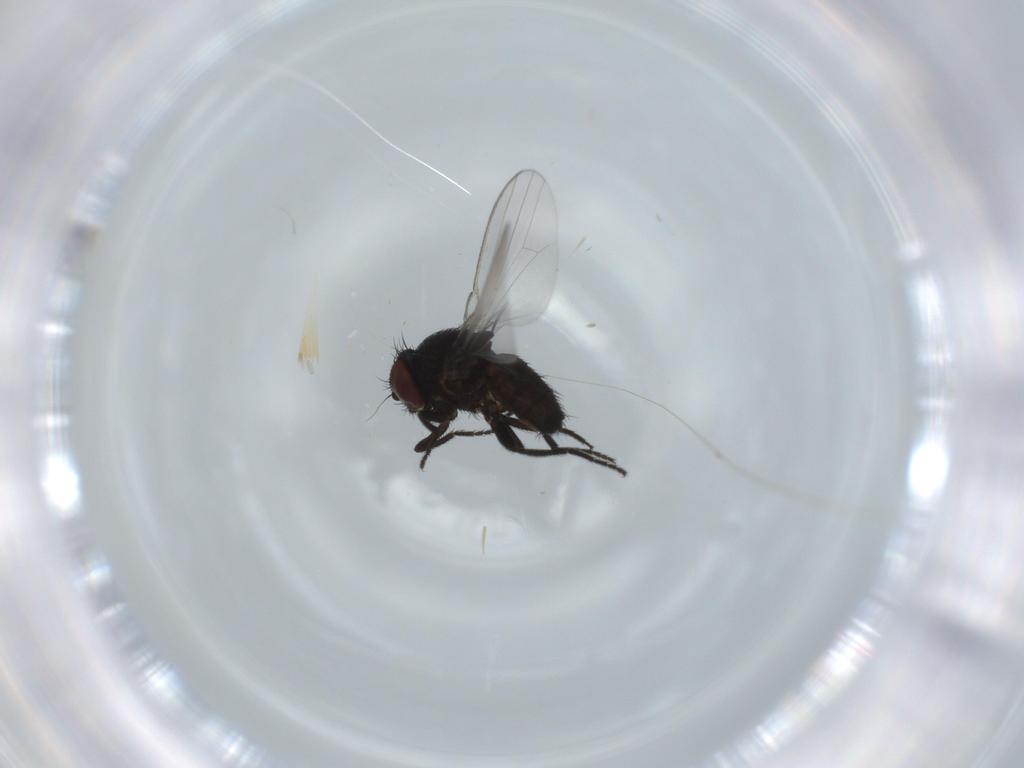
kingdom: Animalia
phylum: Arthropoda
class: Insecta
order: Diptera
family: Milichiidae
